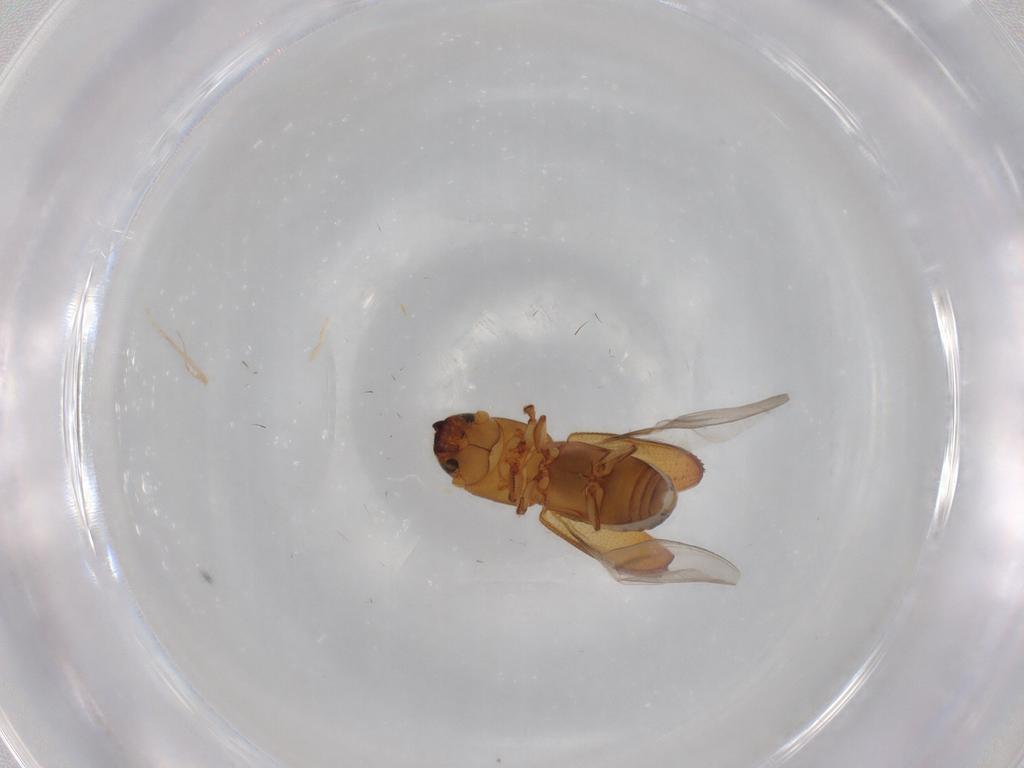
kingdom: Animalia
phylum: Arthropoda
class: Insecta
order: Coleoptera
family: Curculionidae
